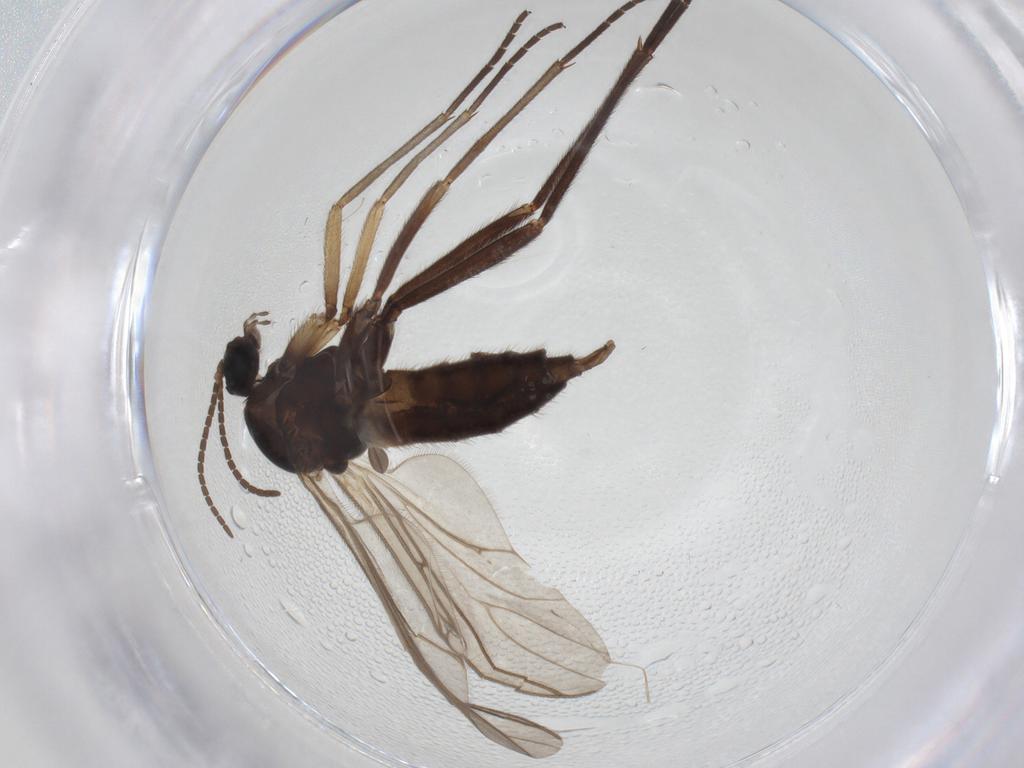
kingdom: Animalia
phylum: Arthropoda
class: Insecta
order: Diptera
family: Sciaridae
